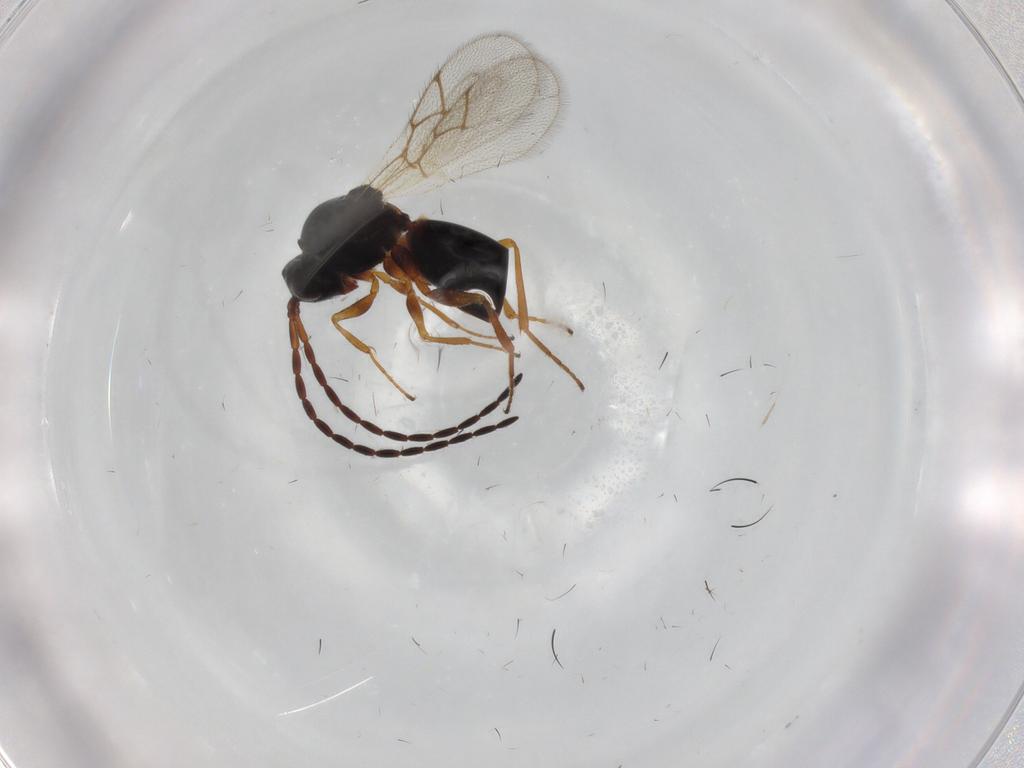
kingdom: Animalia
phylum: Arthropoda
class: Insecta
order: Hymenoptera
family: Figitidae
